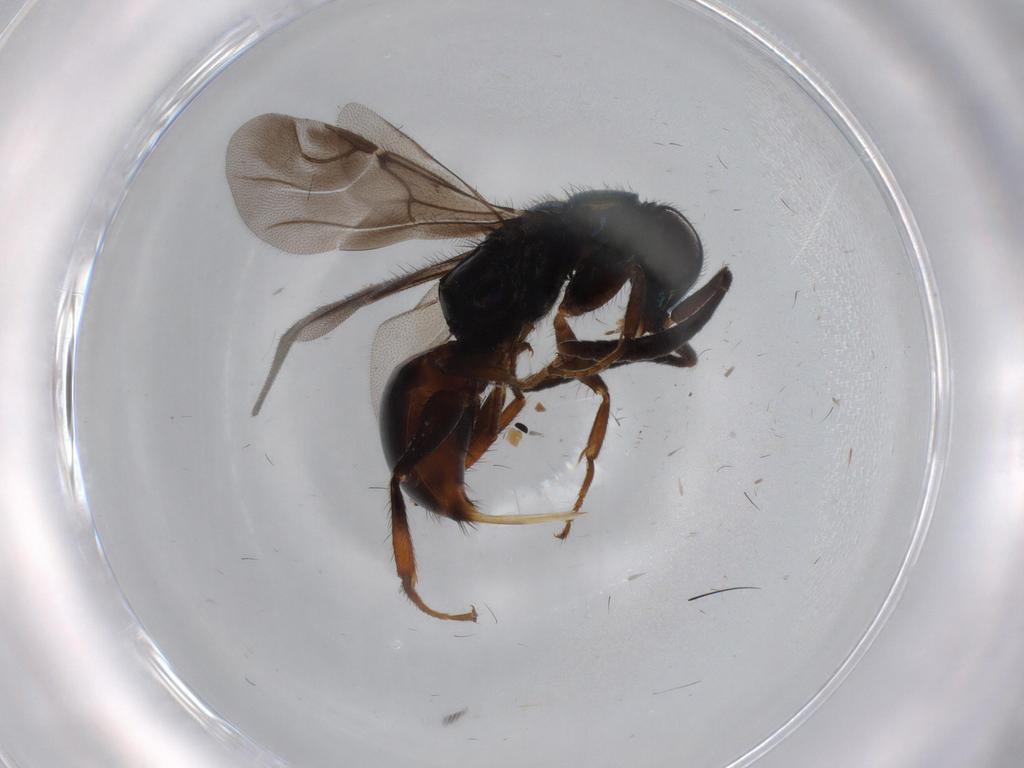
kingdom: Animalia
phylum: Arthropoda
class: Insecta
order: Hymenoptera
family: Chrysididae
